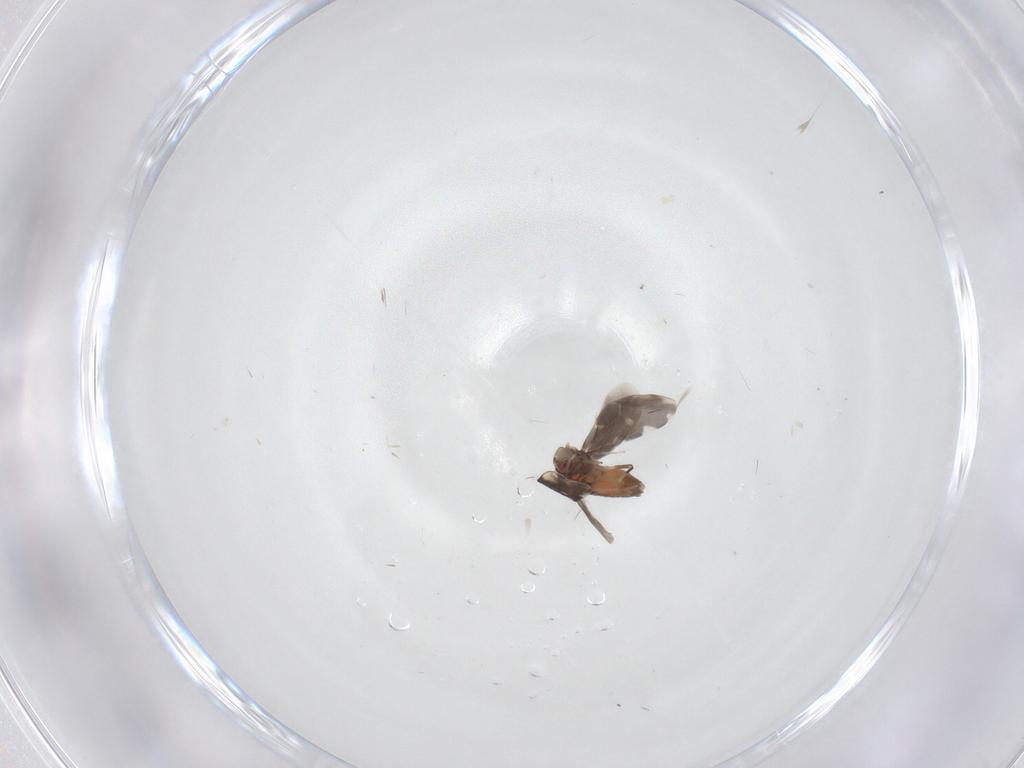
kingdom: Animalia
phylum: Arthropoda
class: Insecta
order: Hemiptera
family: Aleyrodidae
